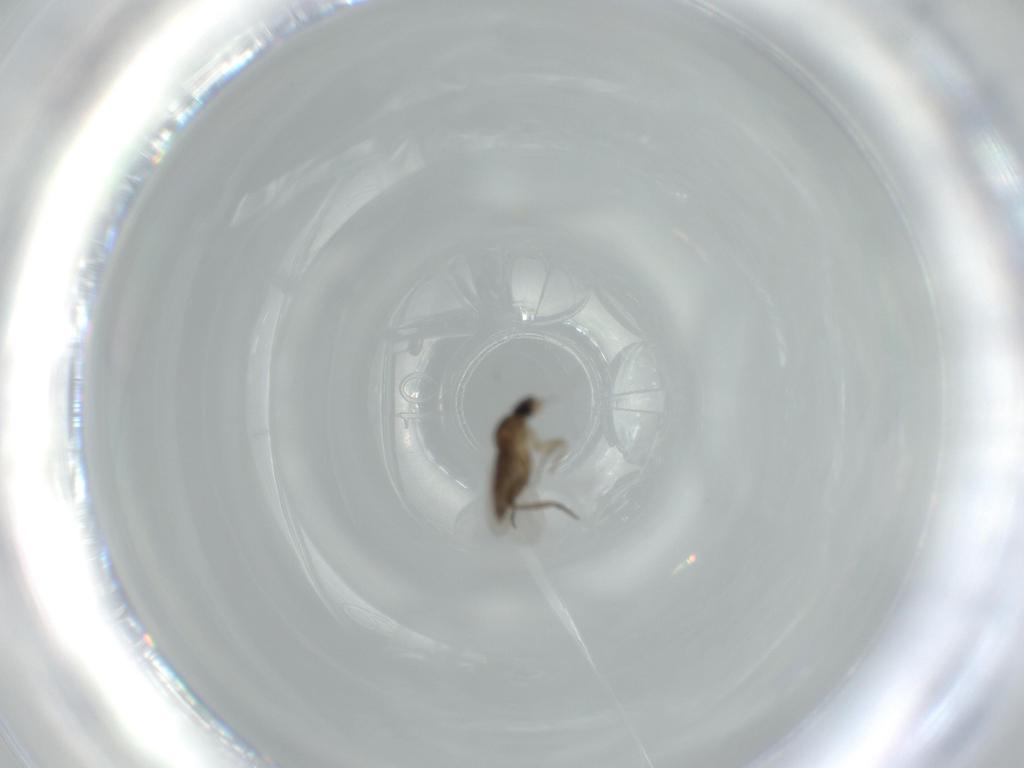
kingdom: Animalia
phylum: Arthropoda
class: Insecta
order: Diptera
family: Phoridae
